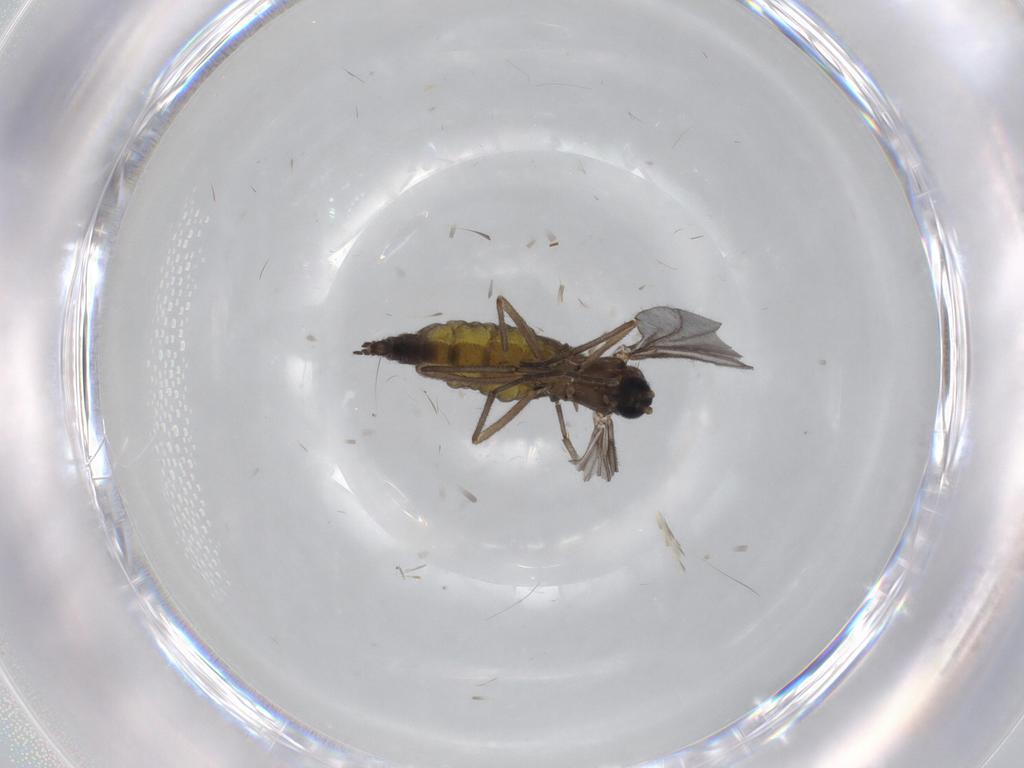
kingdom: Animalia
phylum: Arthropoda
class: Insecta
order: Diptera
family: Sciaridae
